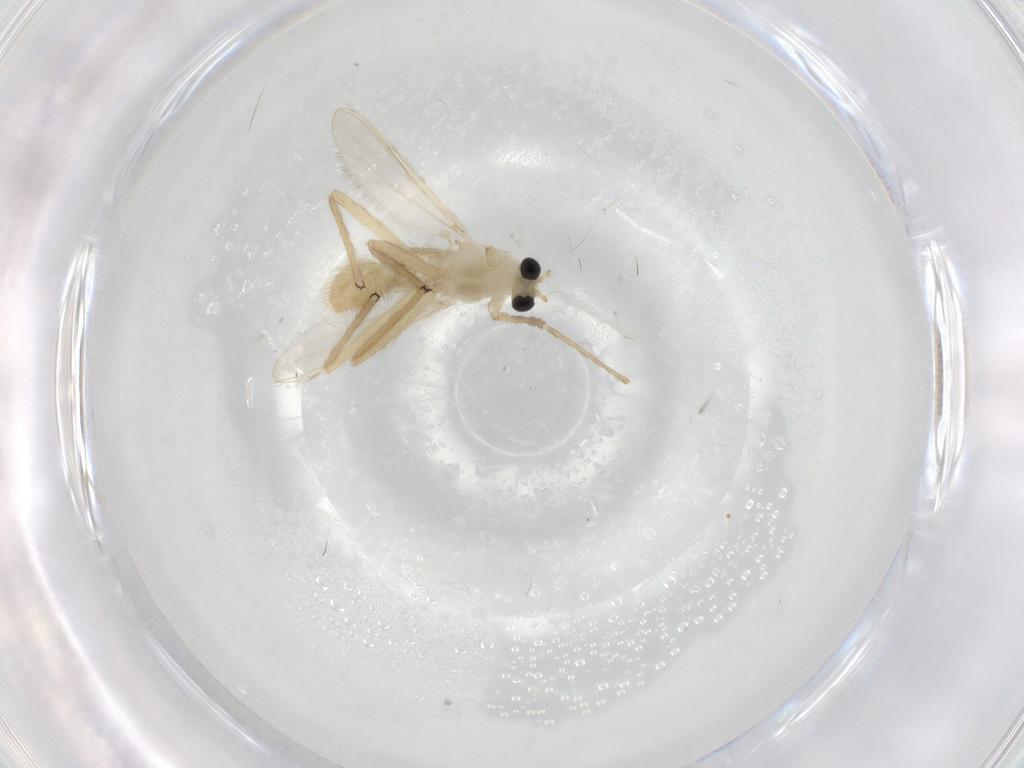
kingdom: Animalia
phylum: Arthropoda
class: Insecta
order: Diptera
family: Chironomidae
